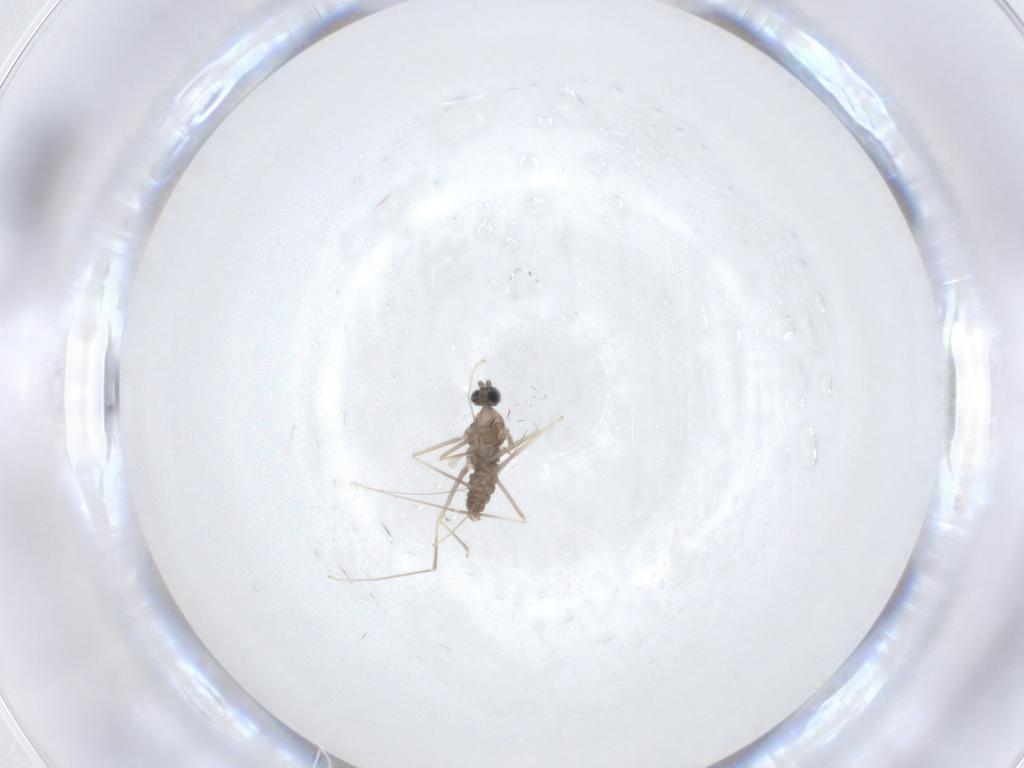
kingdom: Animalia
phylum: Arthropoda
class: Insecta
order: Diptera
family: Cecidomyiidae
